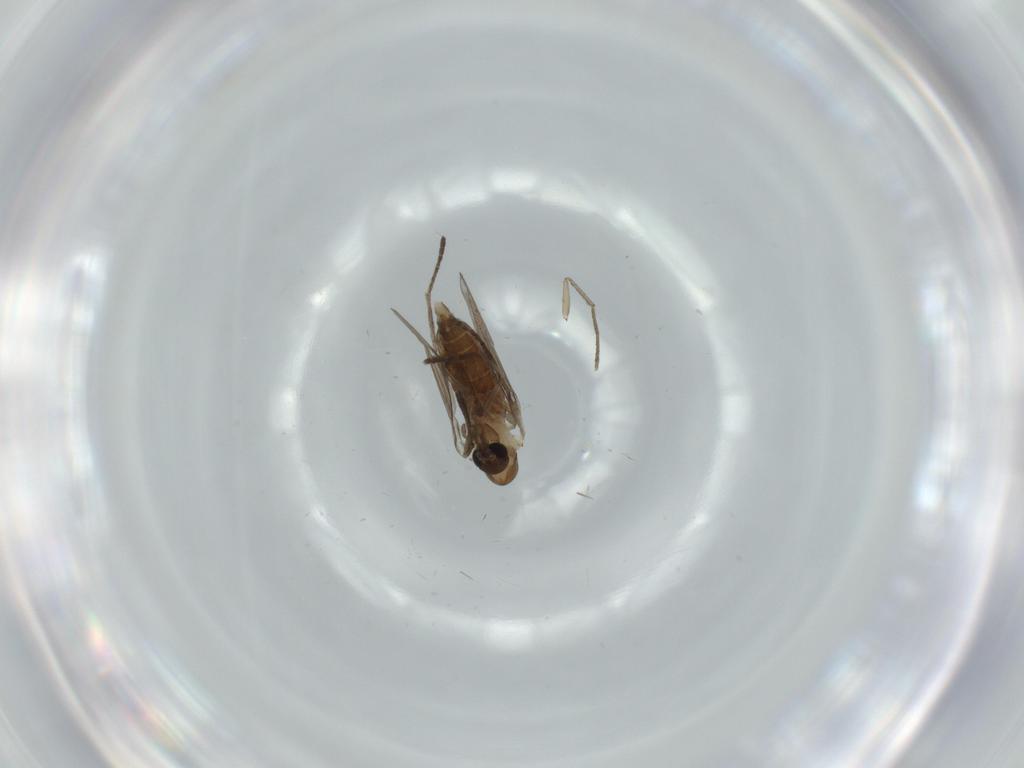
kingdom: Animalia
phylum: Arthropoda
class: Insecta
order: Diptera
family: Psychodidae
